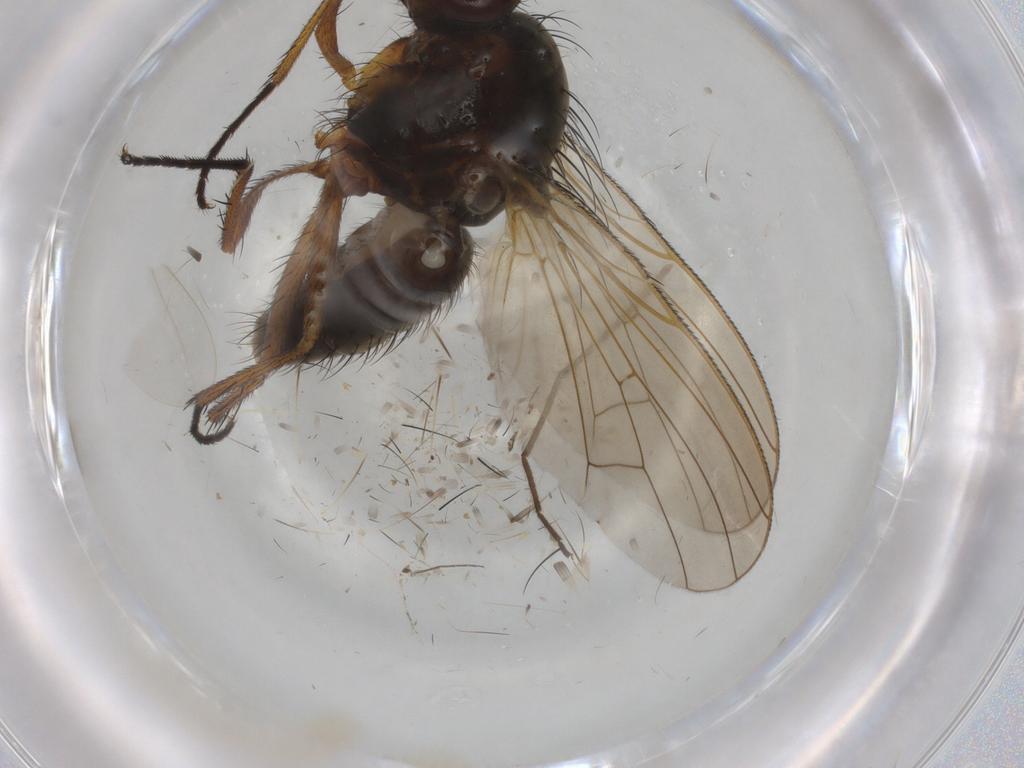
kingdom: Animalia
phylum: Arthropoda
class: Insecta
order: Diptera
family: Anthomyiidae
